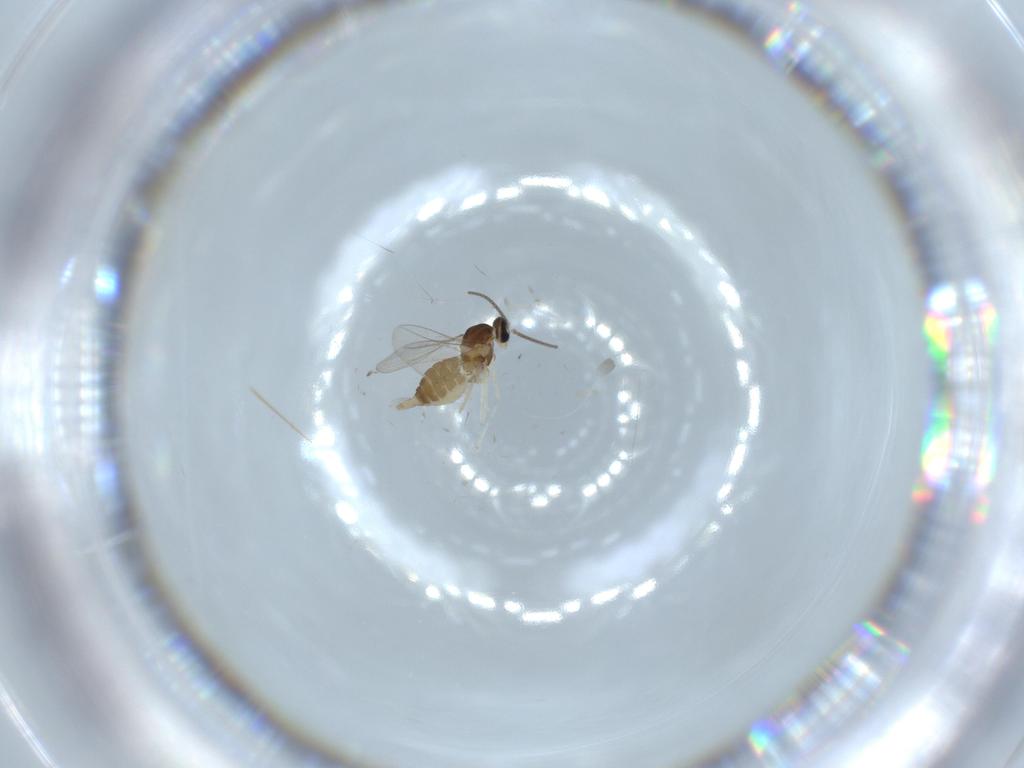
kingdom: Animalia
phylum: Arthropoda
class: Insecta
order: Diptera
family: Cecidomyiidae
